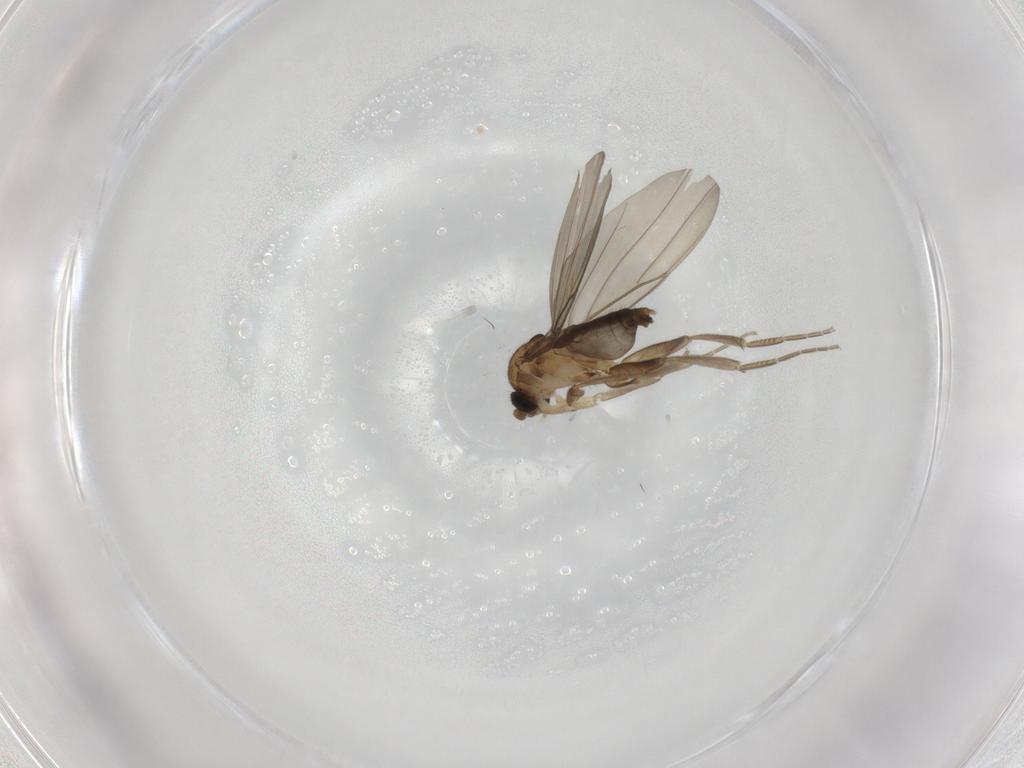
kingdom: Animalia
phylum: Arthropoda
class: Insecta
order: Diptera
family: Phoridae
